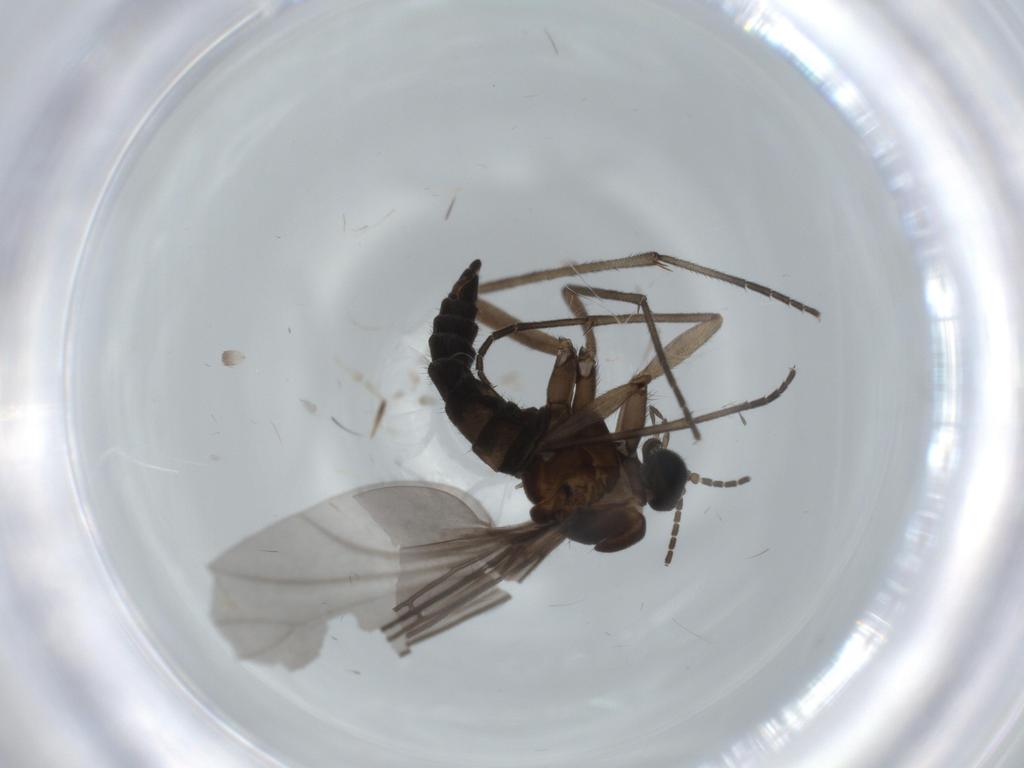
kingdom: Animalia
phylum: Arthropoda
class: Insecta
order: Diptera
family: Sciaridae
